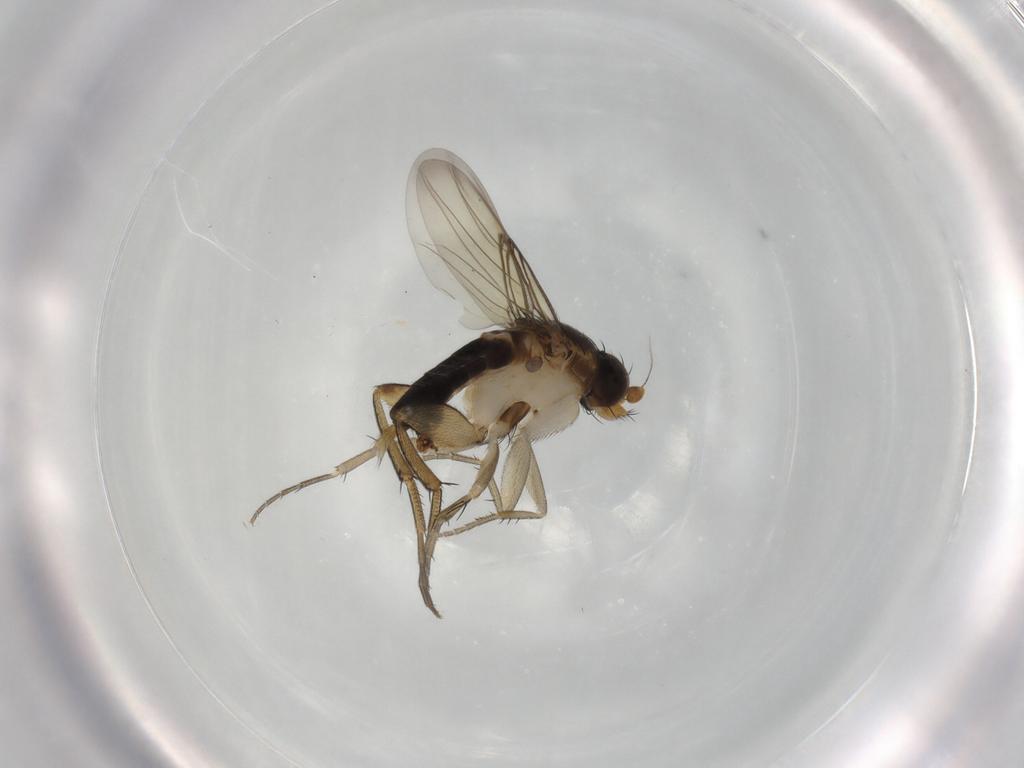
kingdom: Animalia
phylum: Arthropoda
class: Insecta
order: Diptera
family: Phoridae
